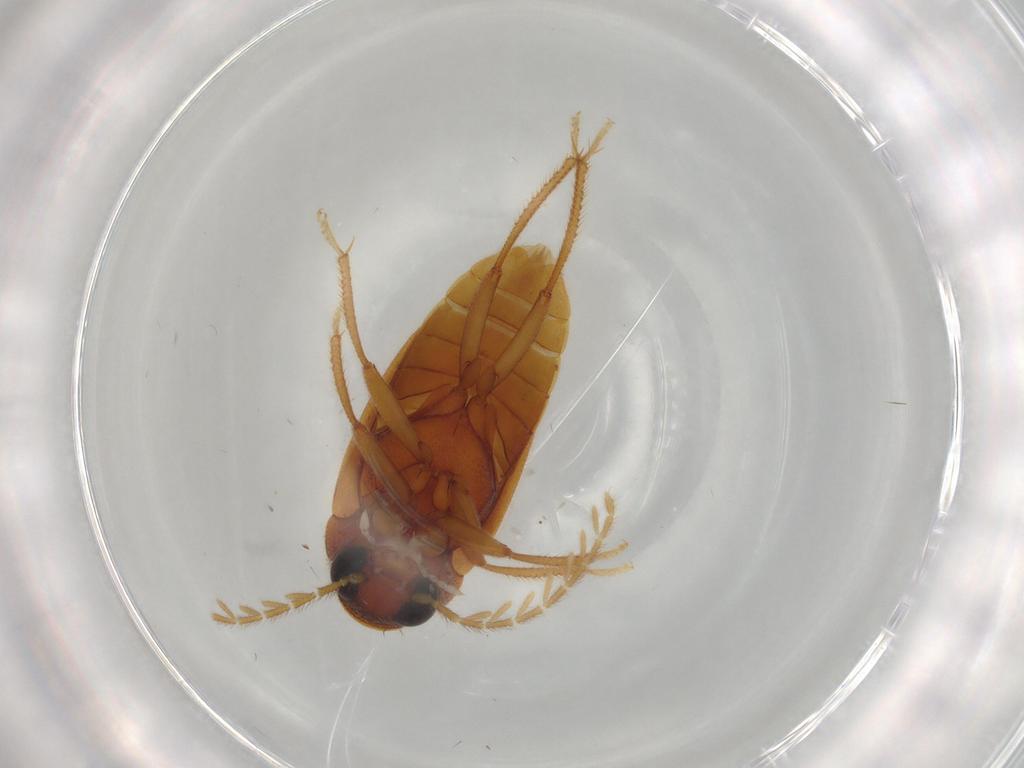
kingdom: Animalia
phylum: Arthropoda
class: Insecta
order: Coleoptera
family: Ptilodactylidae
